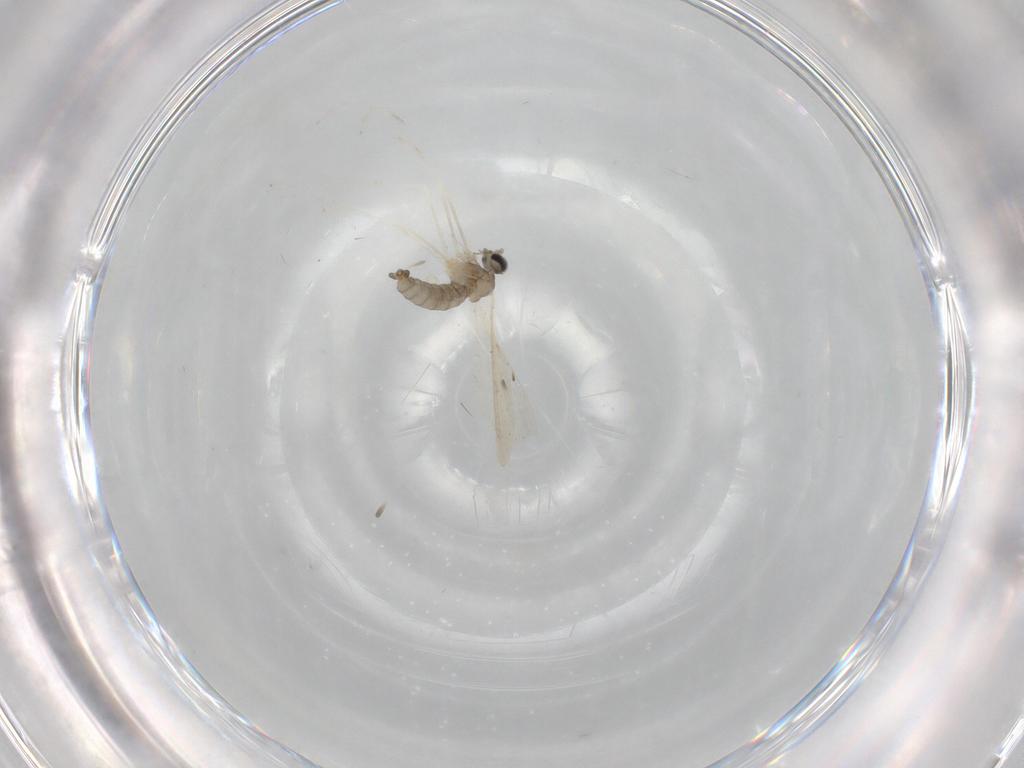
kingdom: Animalia
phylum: Arthropoda
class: Insecta
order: Diptera
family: Cecidomyiidae
